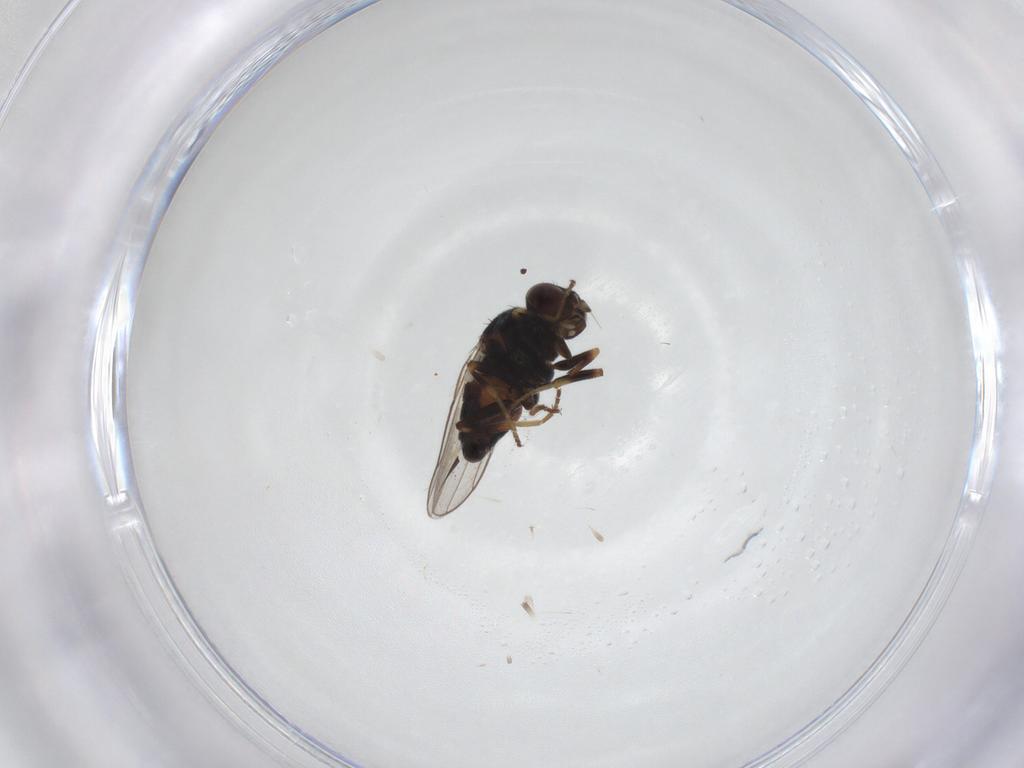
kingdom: Animalia
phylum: Arthropoda
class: Insecta
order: Diptera
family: Chloropidae
